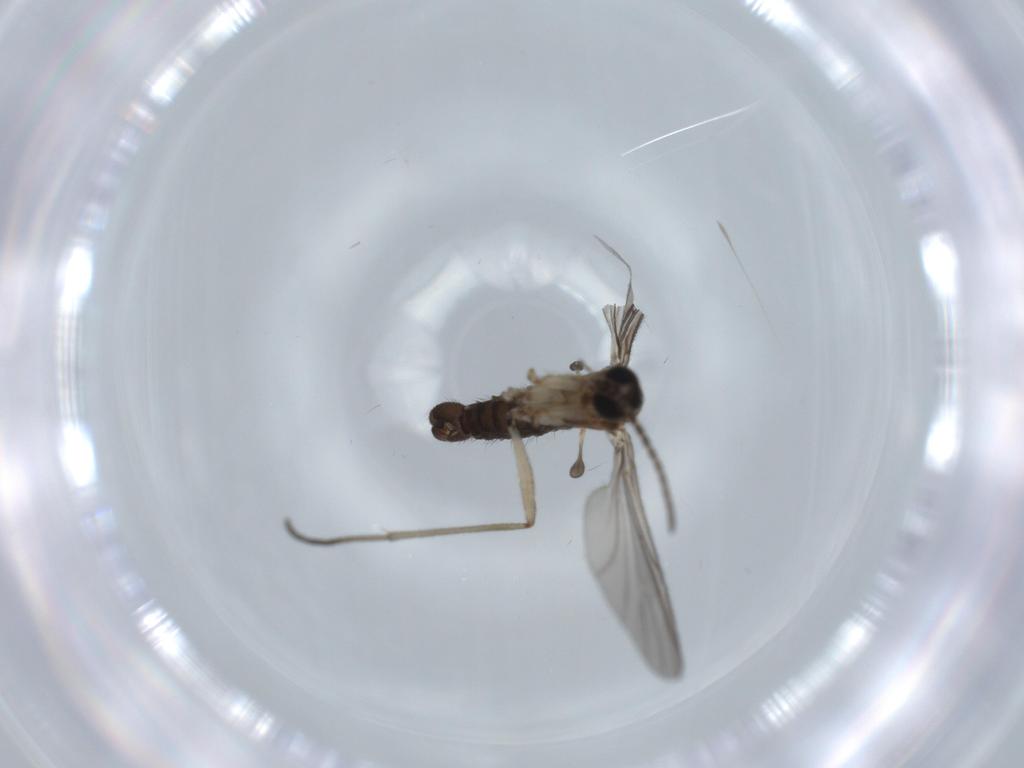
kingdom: Animalia
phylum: Arthropoda
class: Insecta
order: Diptera
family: Sciaridae
